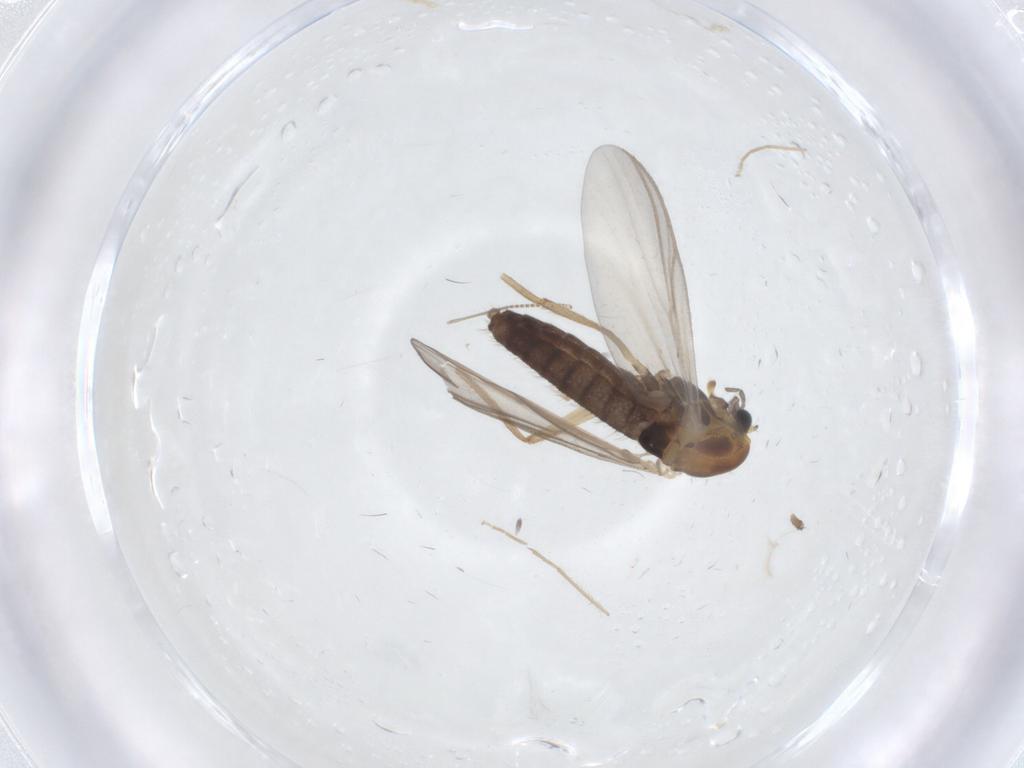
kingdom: Animalia
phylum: Arthropoda
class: Insecta
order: Diptera
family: Chironomidae
